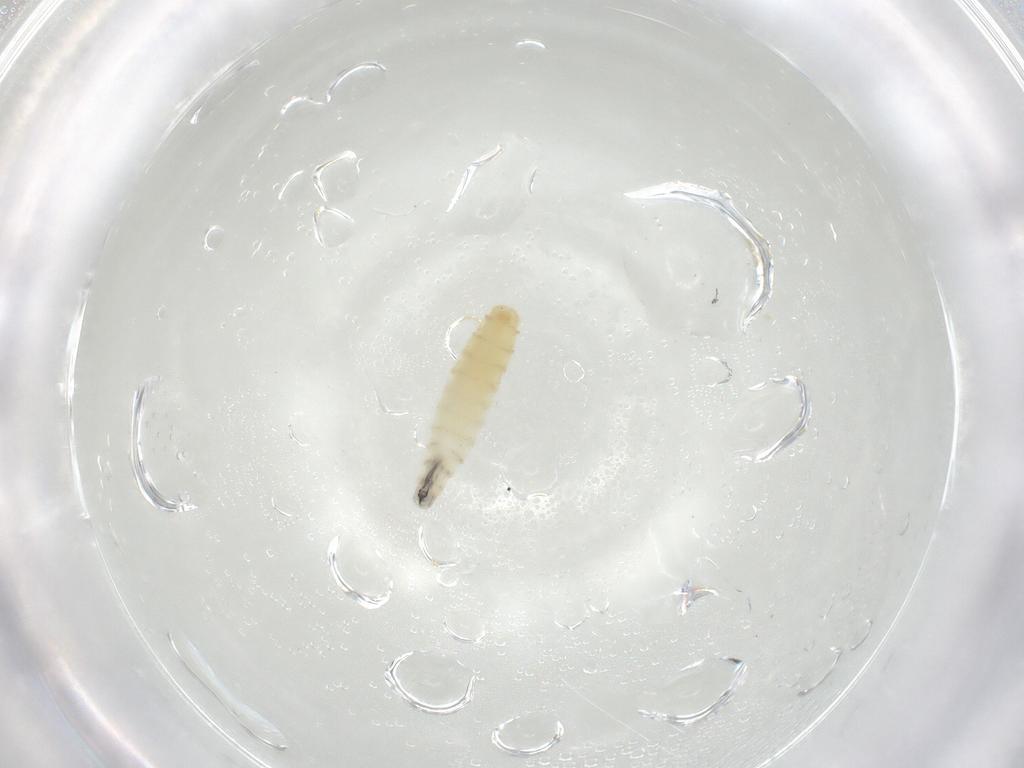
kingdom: Animalia
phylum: Arthropoda
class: Insecta
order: Diptera
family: Sarcophagidae
